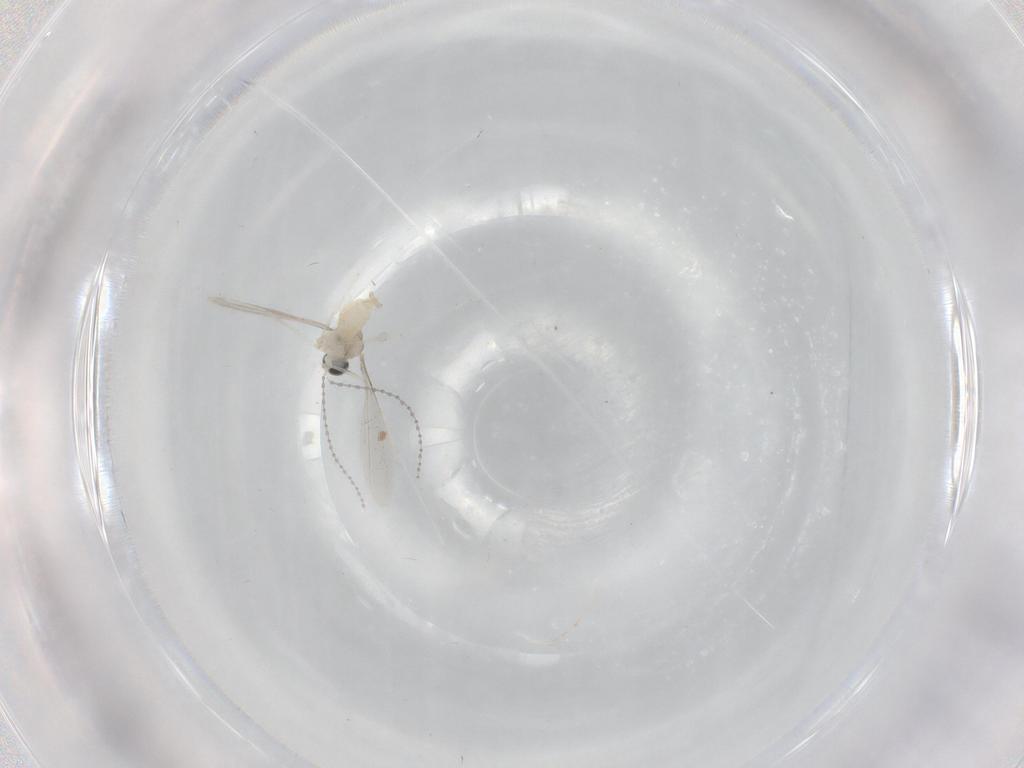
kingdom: Animalia
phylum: Arthropoda
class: Insecta
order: Diptera
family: Cecidomyiidae
